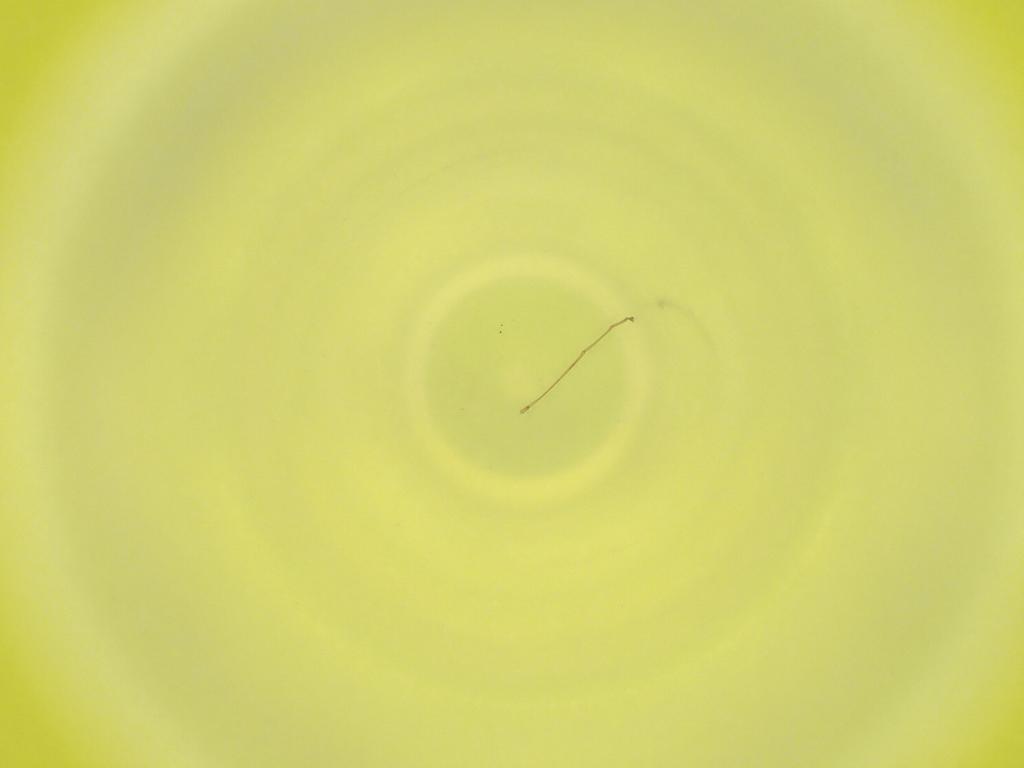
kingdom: Animalia
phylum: Arthropoda
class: Insecta
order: Diptera
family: Cecidomyiidae
